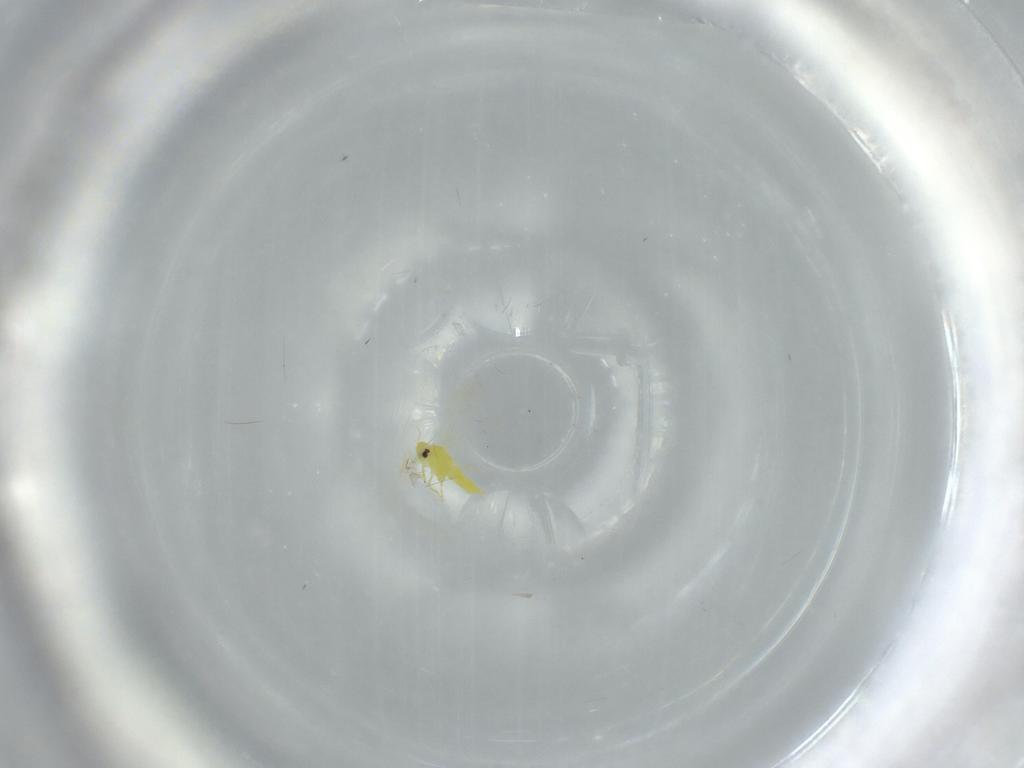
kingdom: Animalia
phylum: Arthropoda
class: Insecta
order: Hemiptera
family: Aleyrodidae
